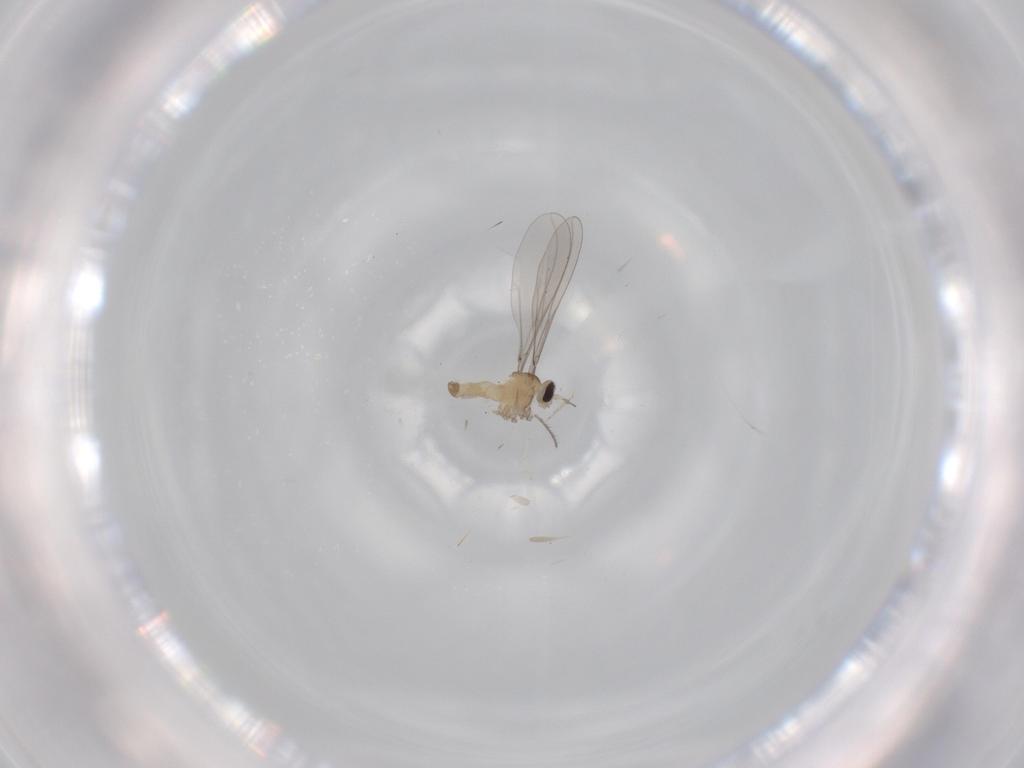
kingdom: Animalia
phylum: Arthropoda
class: Insecta
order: Diptera
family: Cecidomyiidae
